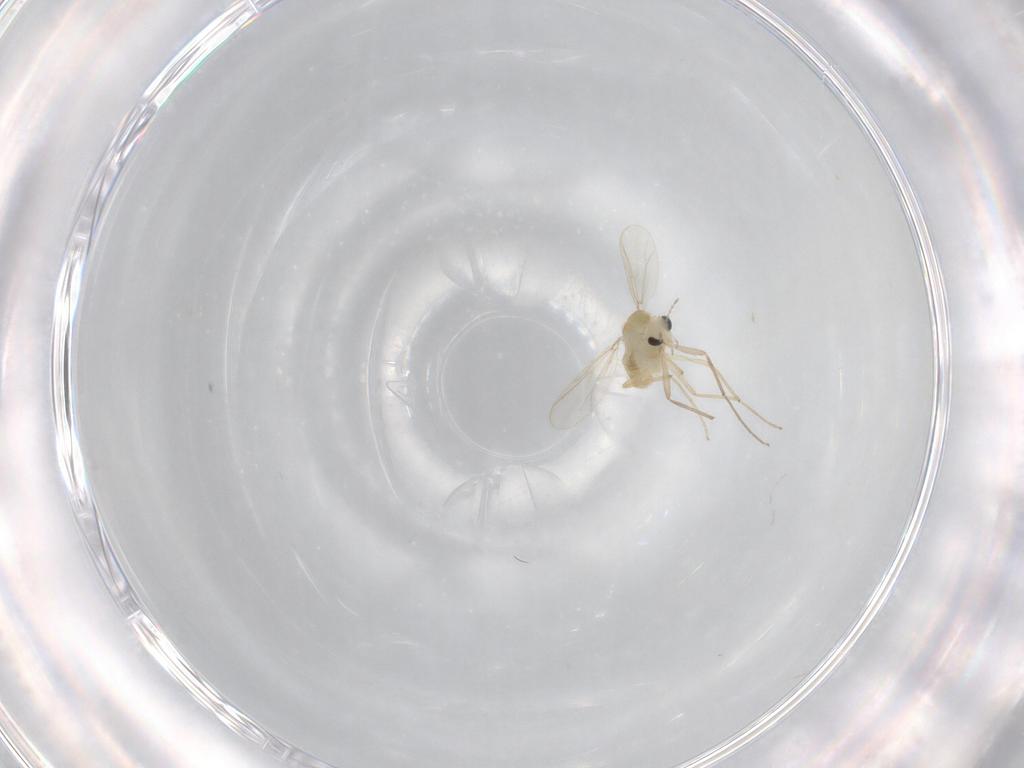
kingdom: Animalia
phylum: Arthropoda
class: Insecta
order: Diptera
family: Chironomidae
